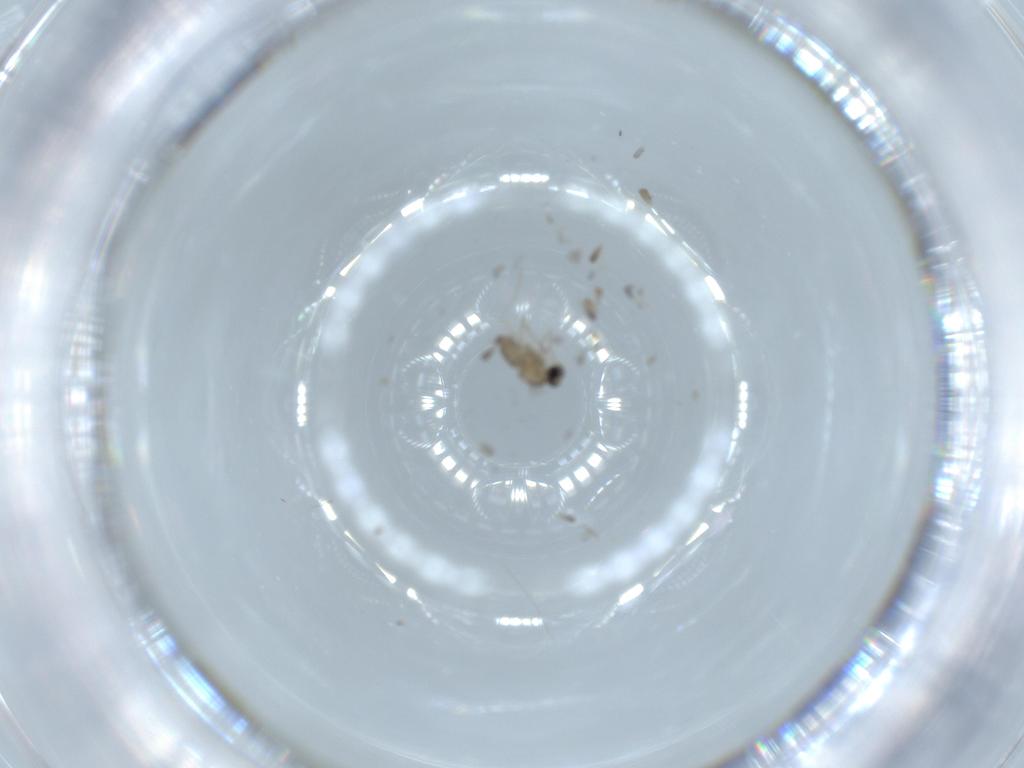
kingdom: Animalia
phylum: Arthropoda
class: Insecta
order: Diptera
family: Cecidomyiidae
